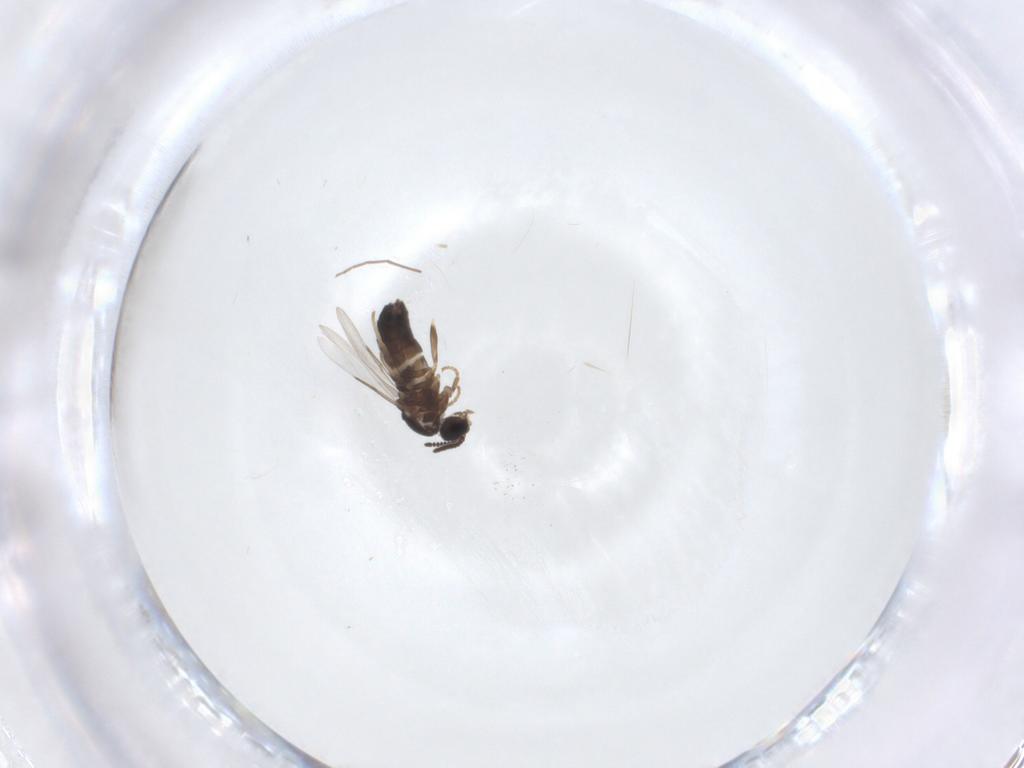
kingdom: Animalia
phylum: Arthropoda
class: Insecta
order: Diptera
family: Scatopsidae
